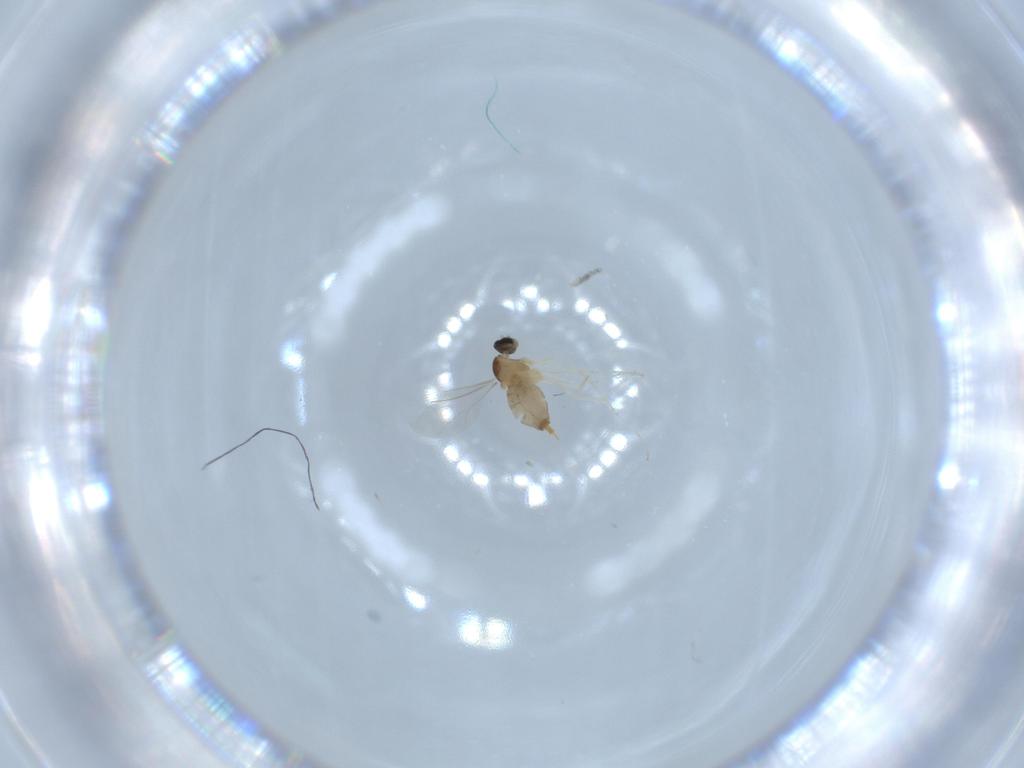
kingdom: Animalia
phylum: Arthropoda
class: Insecta
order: Diptera
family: Cecidomyiidae
